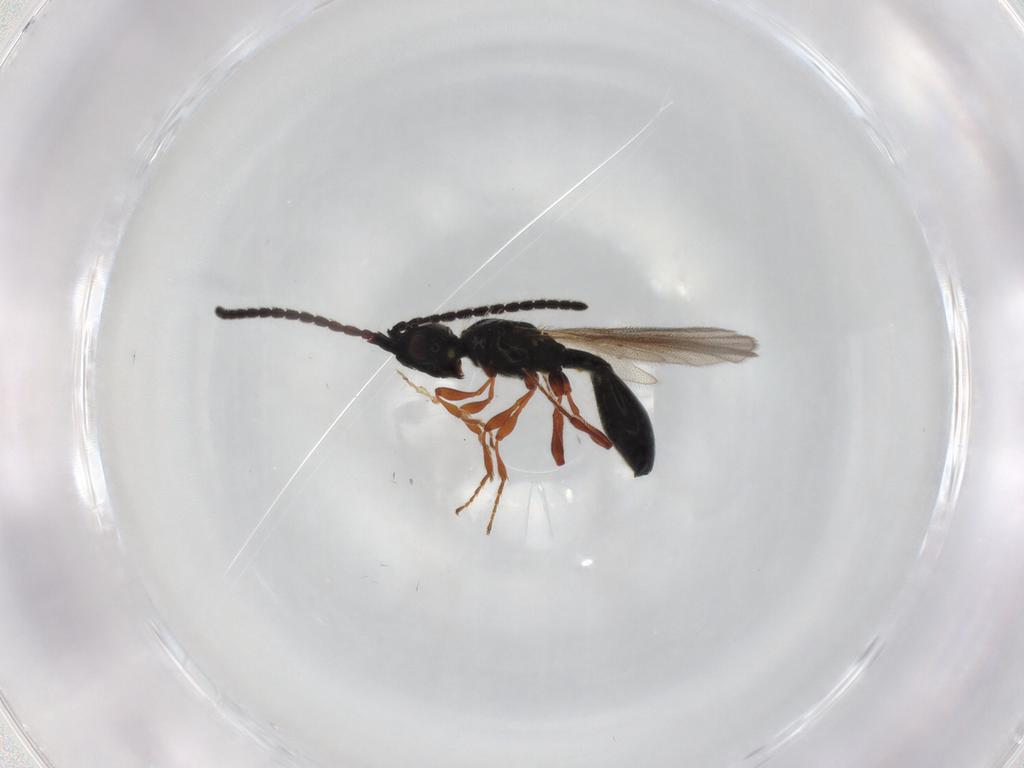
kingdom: Animalia
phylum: Arthropoda
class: Insecta
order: Hymenoptera
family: Diapriidae
